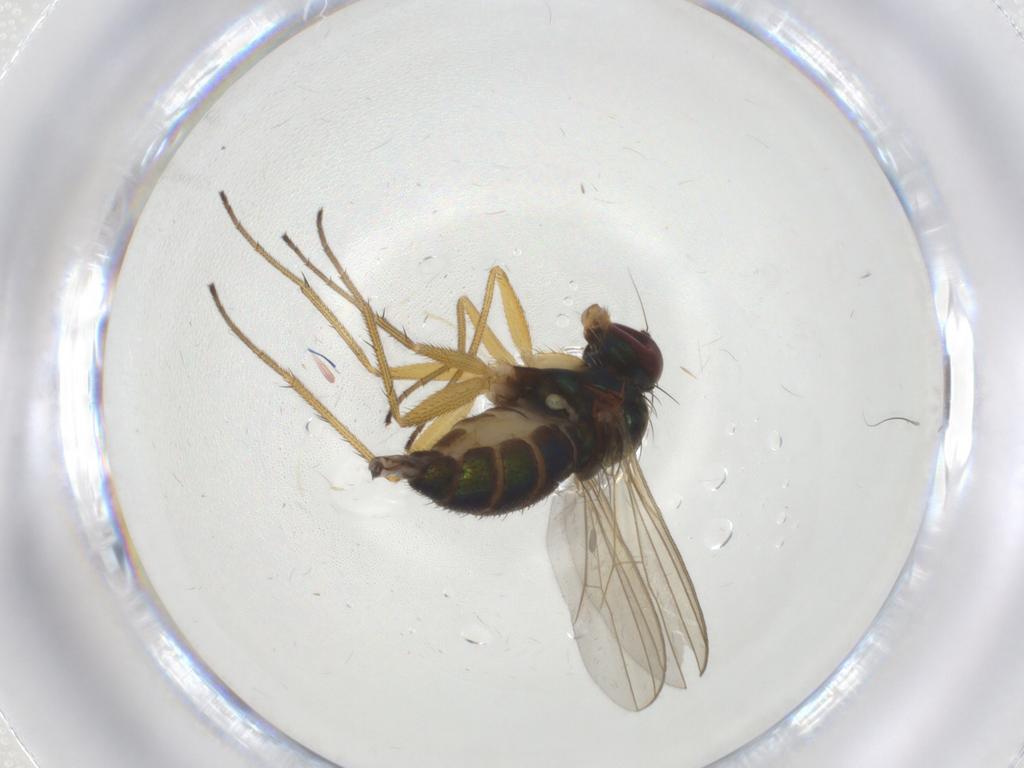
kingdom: Animalia
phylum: Arthropoda
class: Insecta
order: Diptera
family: Dolichopodidae
